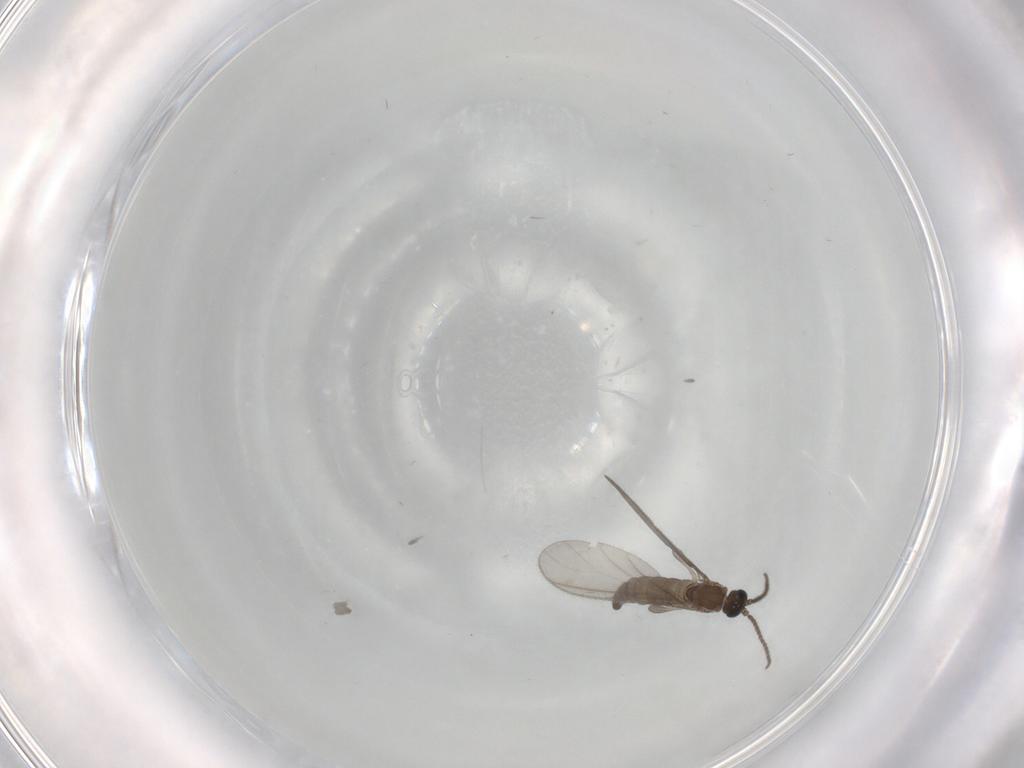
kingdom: Animalia
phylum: Arthropoda
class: Insecta
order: Diptera
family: Sciaridae
